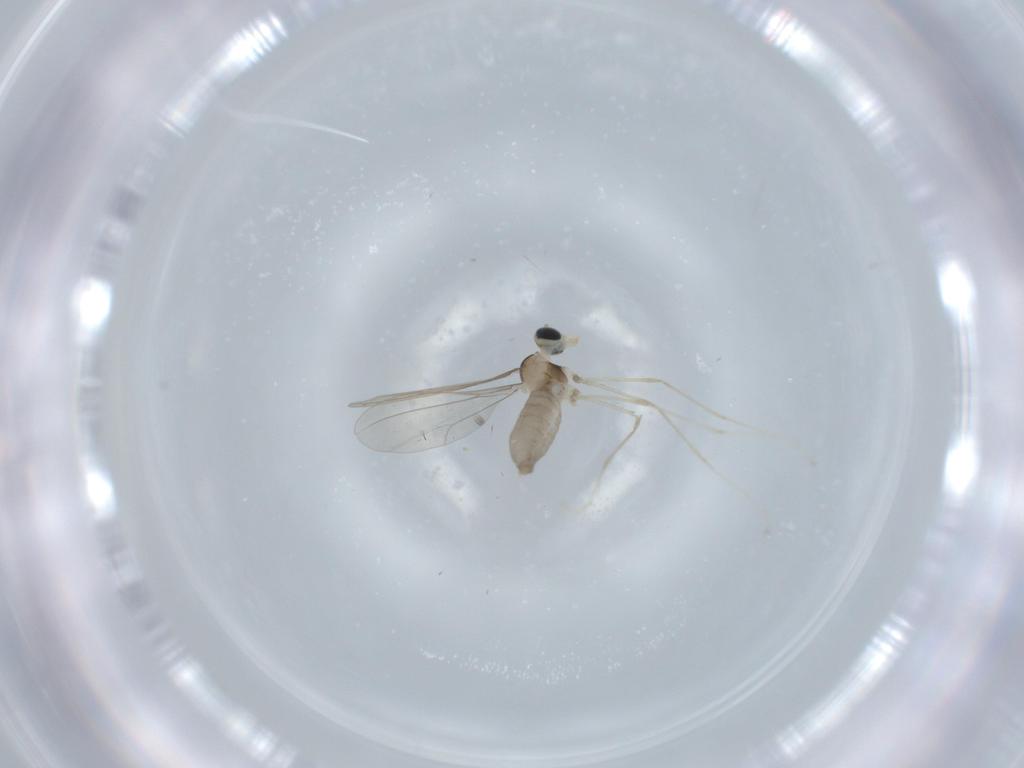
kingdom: Animalia
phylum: Arthropoda
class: Insecta
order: Diptera
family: Cecidomyiidae
